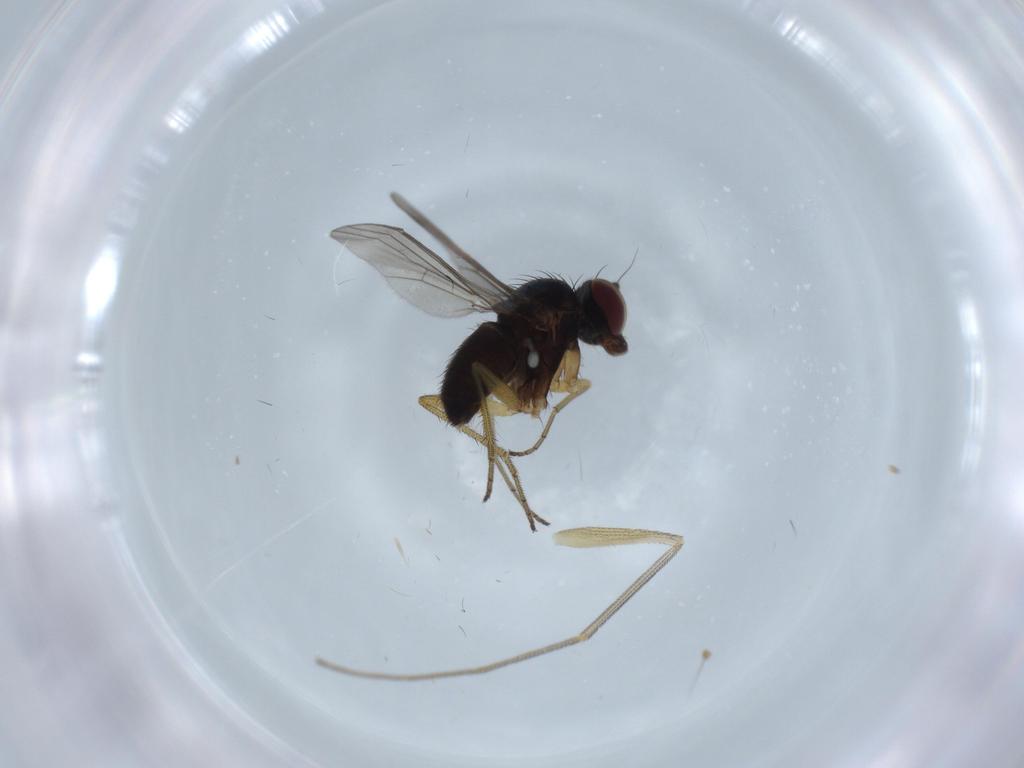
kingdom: Animalia
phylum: Arthropoda
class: Insecta
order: Diptera
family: Dolichopodidae
